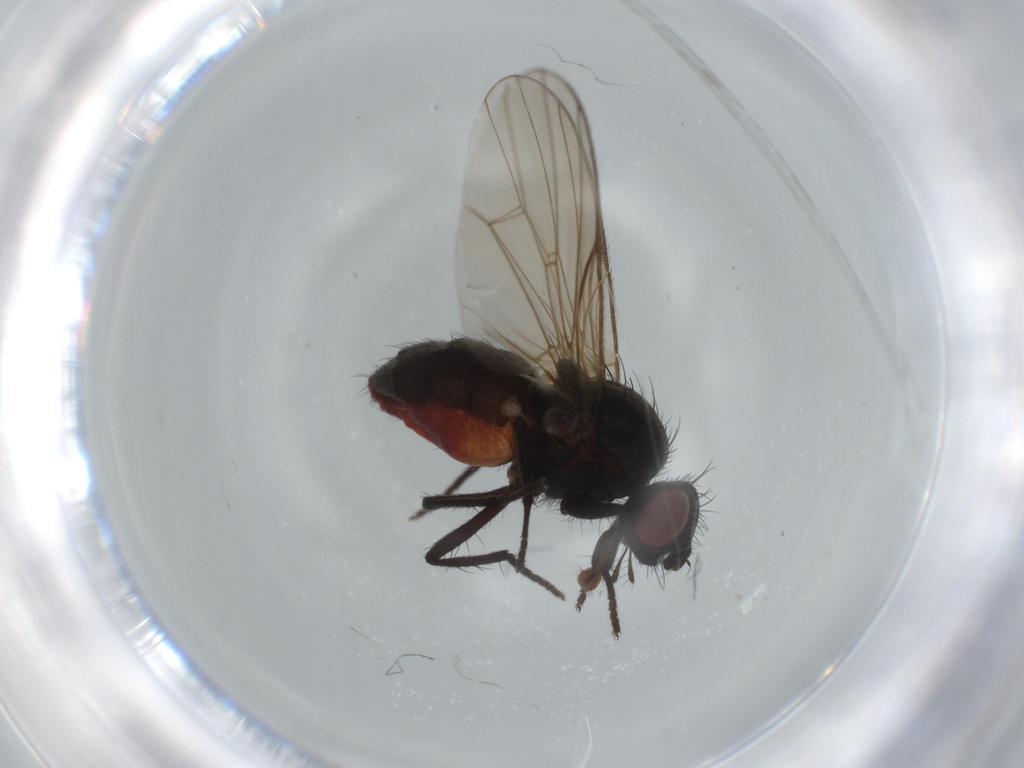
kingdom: Animalia
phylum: Arthropoda
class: Insecta
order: Diptera
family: Anthomyiidae
